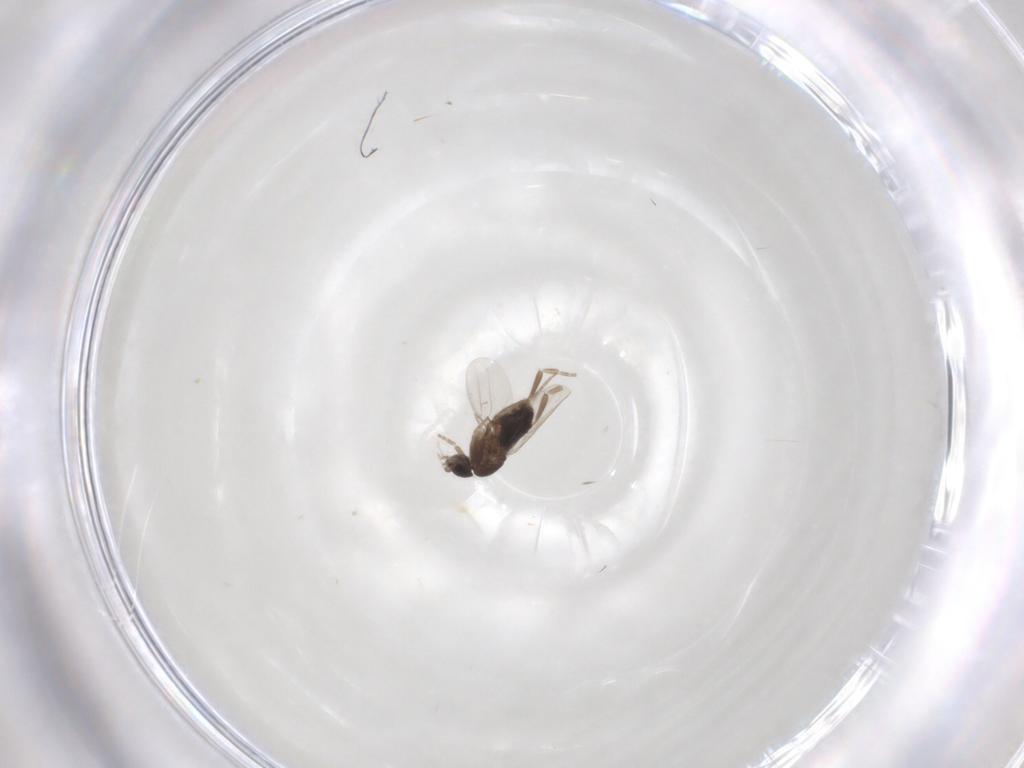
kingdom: Animalia
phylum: Arthropoda
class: Insecta
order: Diptera
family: Phoridae
